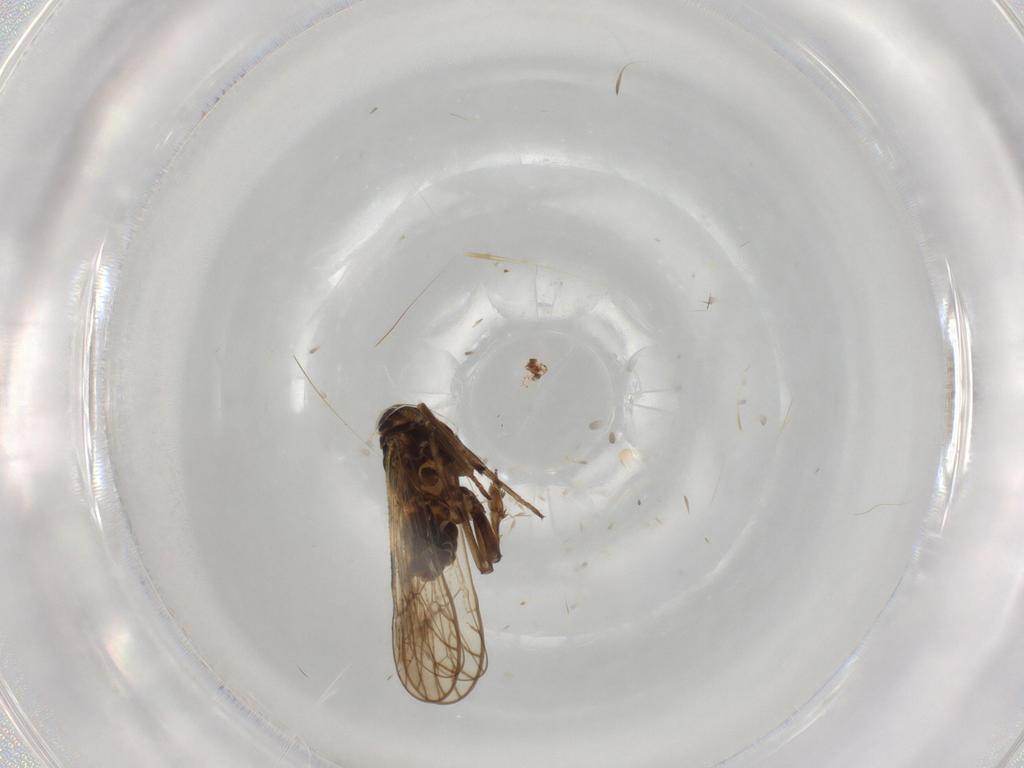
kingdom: Animalia
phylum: Arthropoda
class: Insecta
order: Hemiptera
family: Delphacidae
